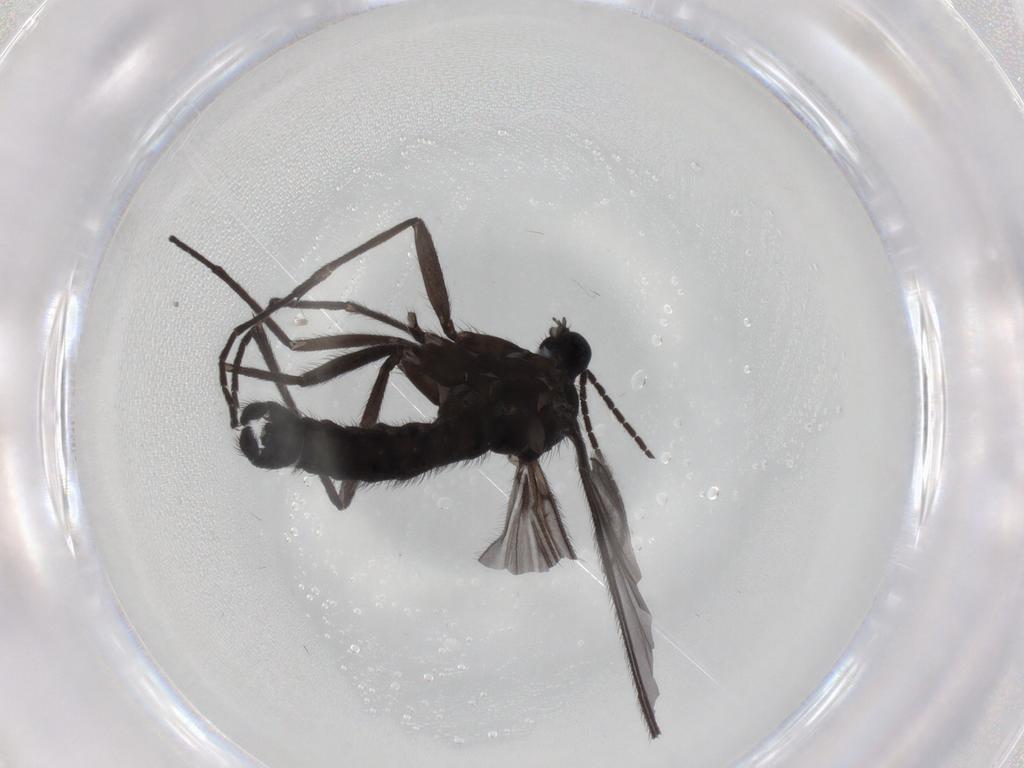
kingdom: Animalia
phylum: Arthropoda
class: Insecta
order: Diptera
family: Sciaridae
